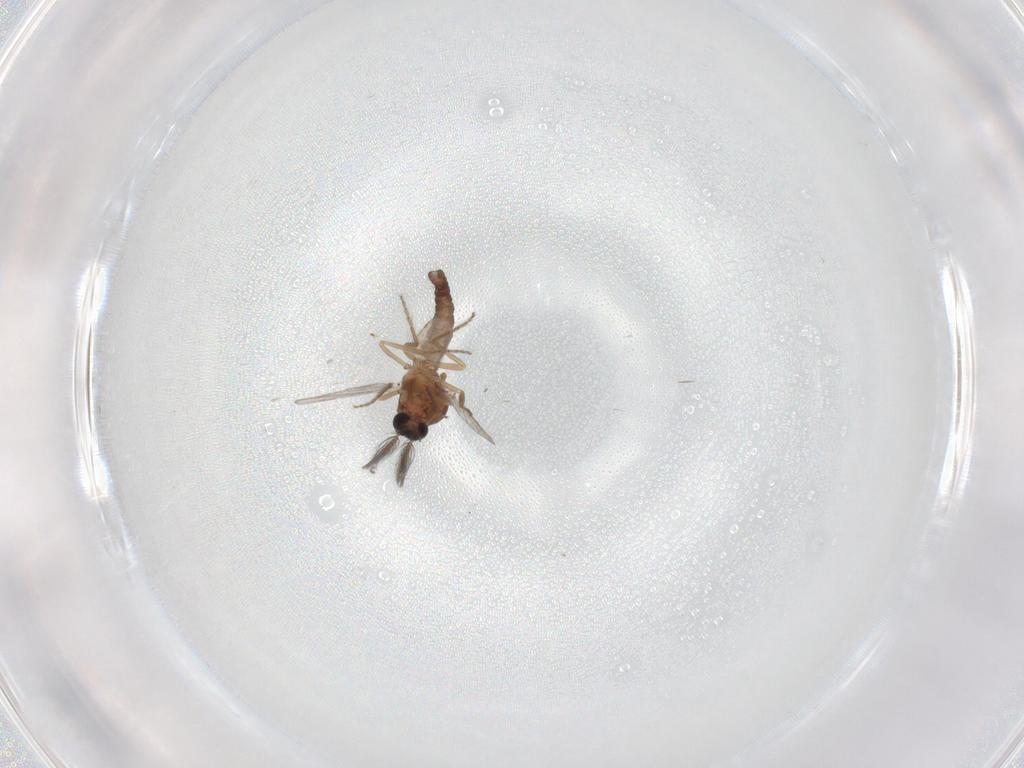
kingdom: Animalia
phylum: Arthropoda
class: Insecta
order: Diptera
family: Ceratopogonidae
